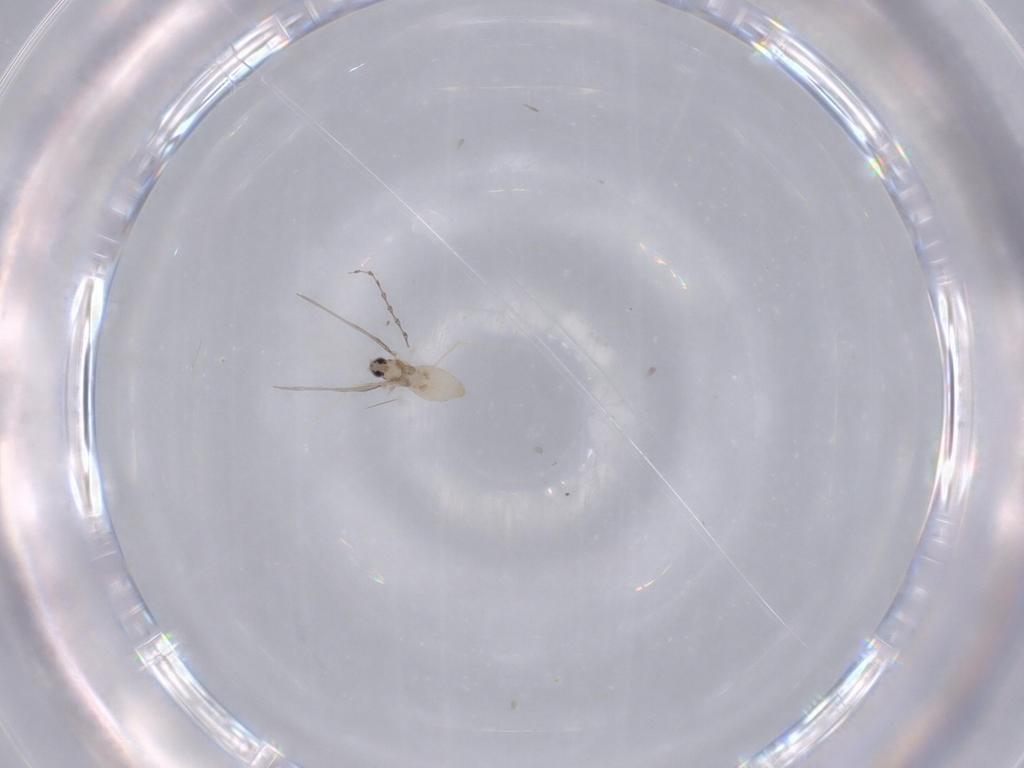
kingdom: Animalia
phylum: Arthropoda
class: Insecta
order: Diptera
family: Cecidomyiidae
